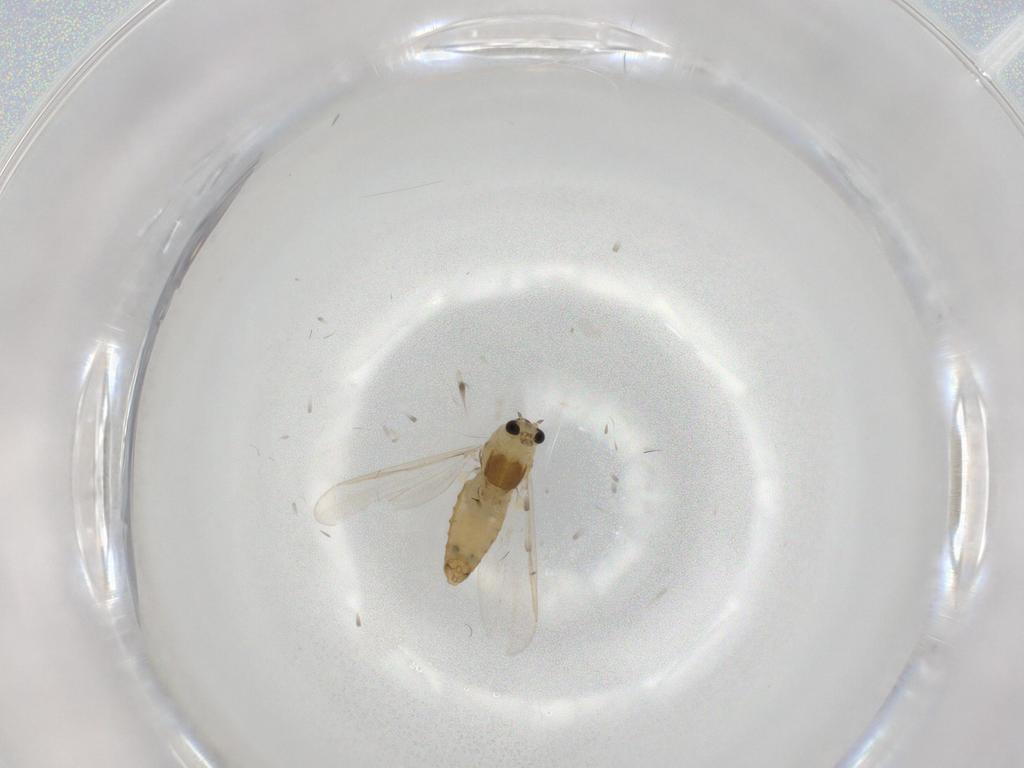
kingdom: Animalia
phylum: Arthropoda
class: Insecta
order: Diptera
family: Chironomidae
